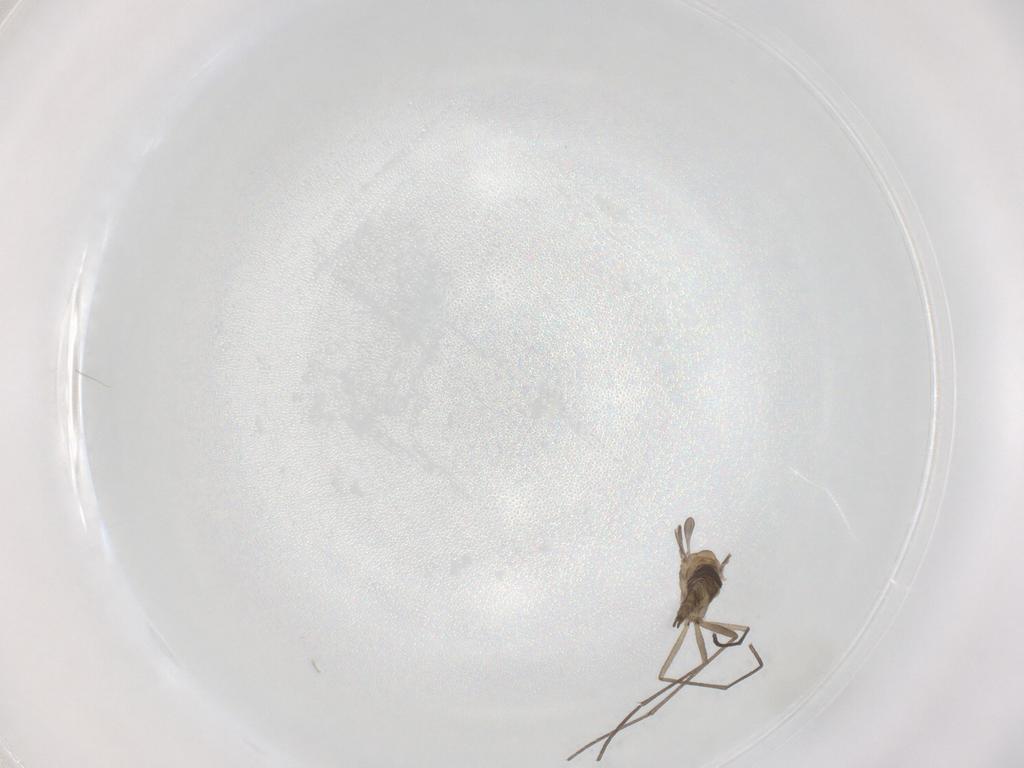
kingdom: Animalia
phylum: Arthropoda
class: Insecta
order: Diptera
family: Sciaridae
